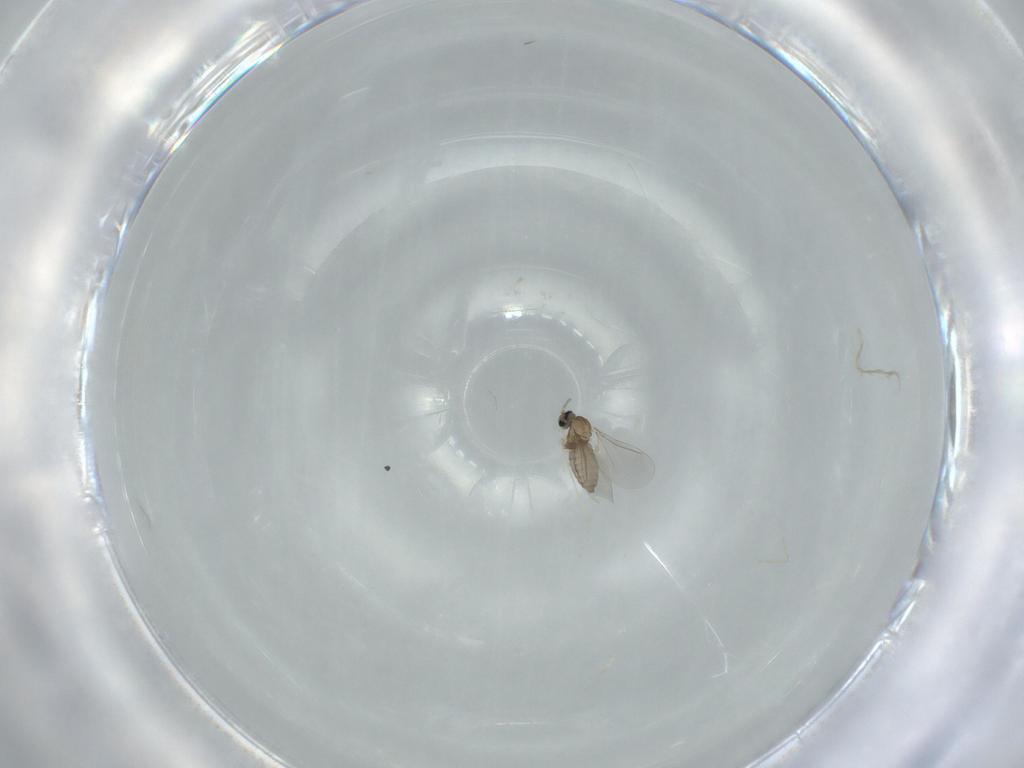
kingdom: Animalia
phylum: Arthropoda
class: Insecta
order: Diptera
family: Cecidomyiidae
